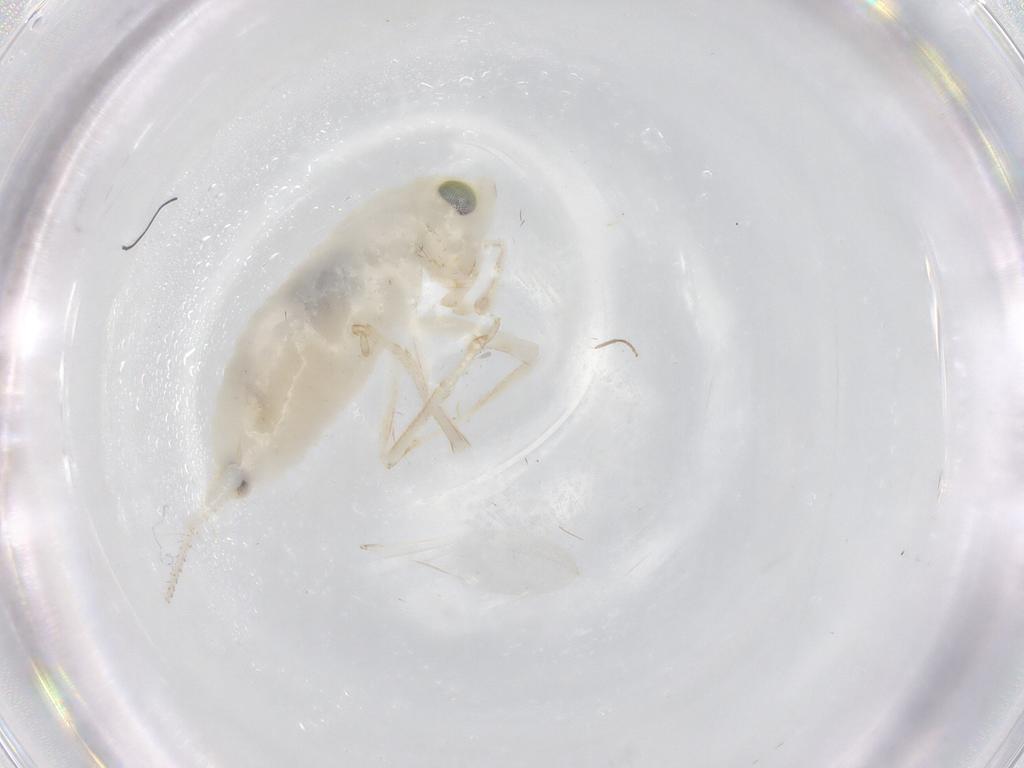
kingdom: Animalia
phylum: Arthropoda
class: Insecta
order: Orthoptera
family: Trigonidiidae
